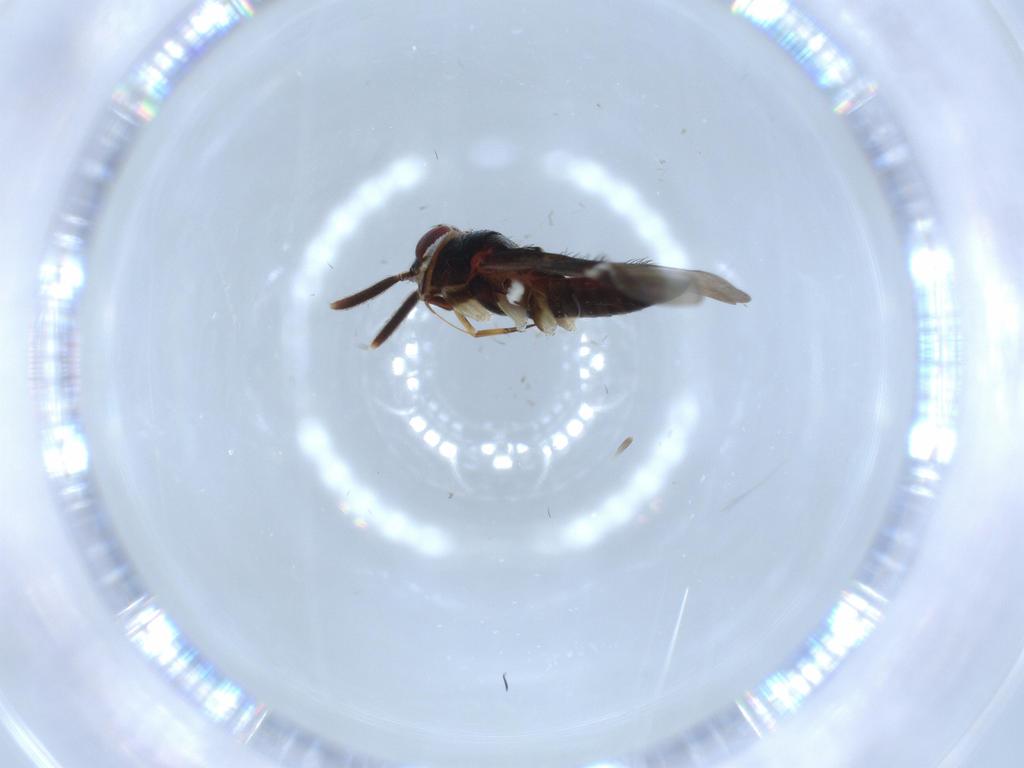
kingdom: Animalia
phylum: Arthropoda
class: Insecta
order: Hemiptera
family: Miridae
